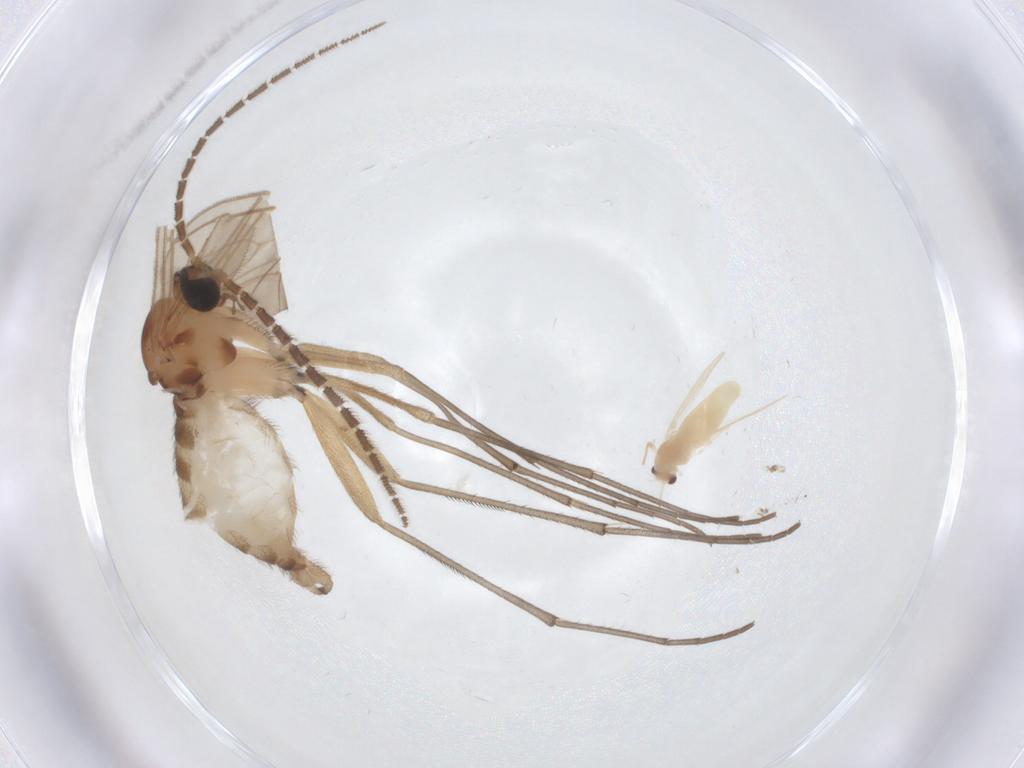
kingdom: Animalia
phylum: Arthropoda
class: Insecta
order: Diptera
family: Sciaridae
